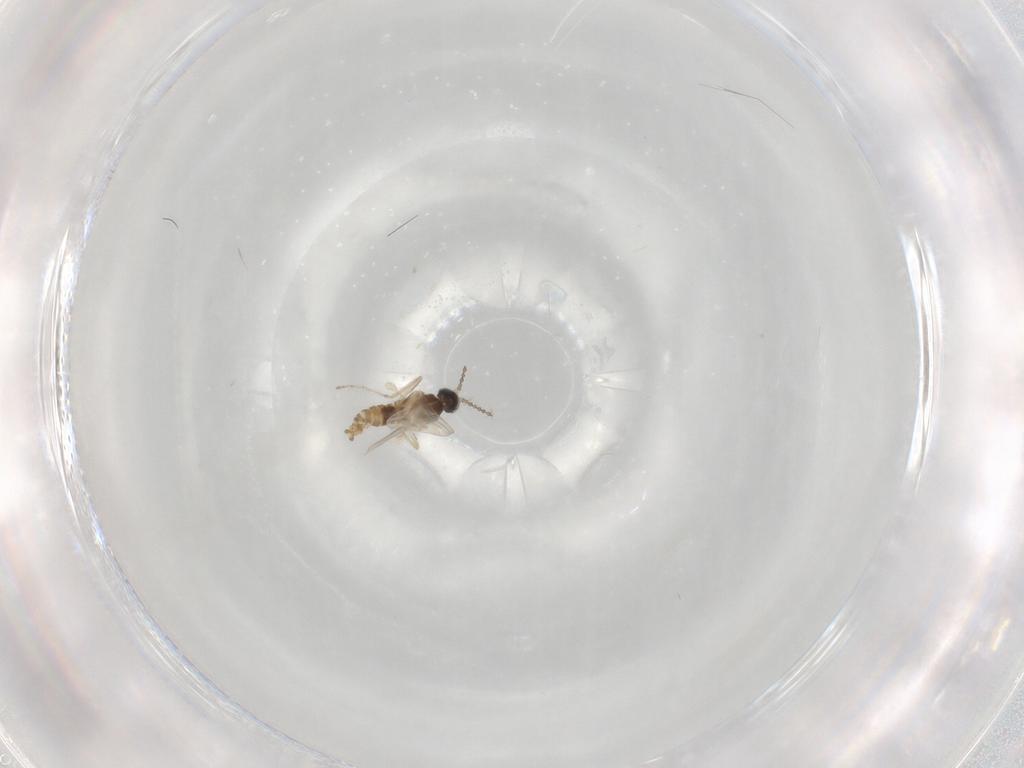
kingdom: Animalia
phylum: Arthropoda
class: Insecta
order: Diptera
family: Cecidomyiidae
